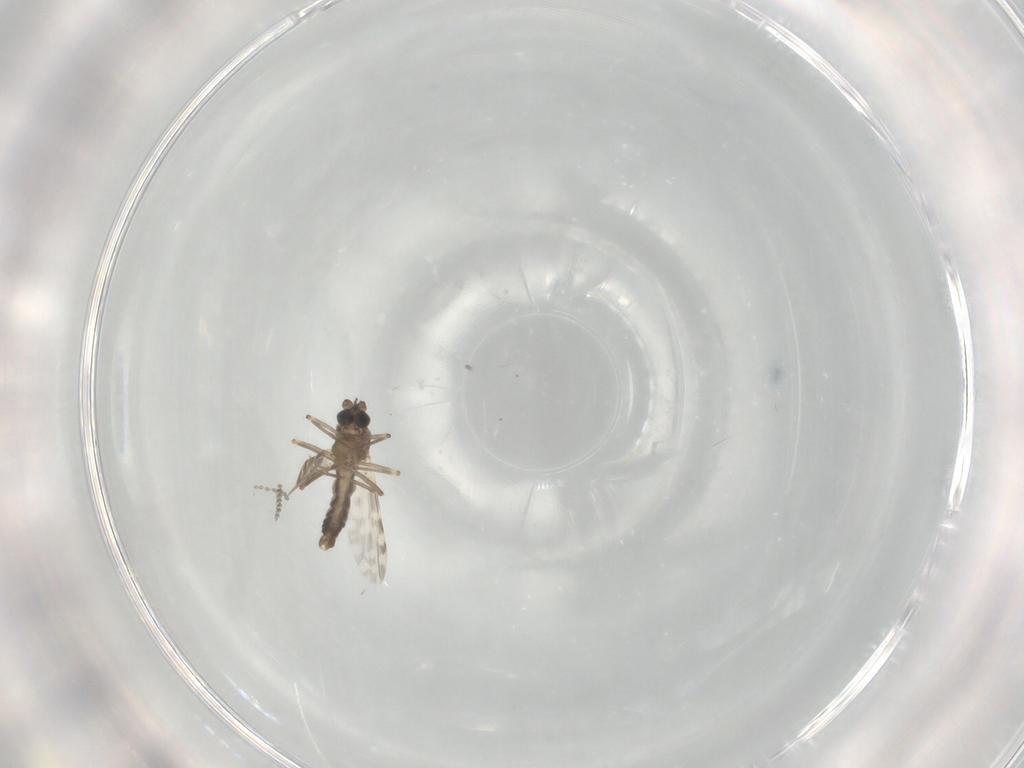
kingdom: Animalia
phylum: Arthropoda
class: Insecta
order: Diptera
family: Ceratopogonidae
